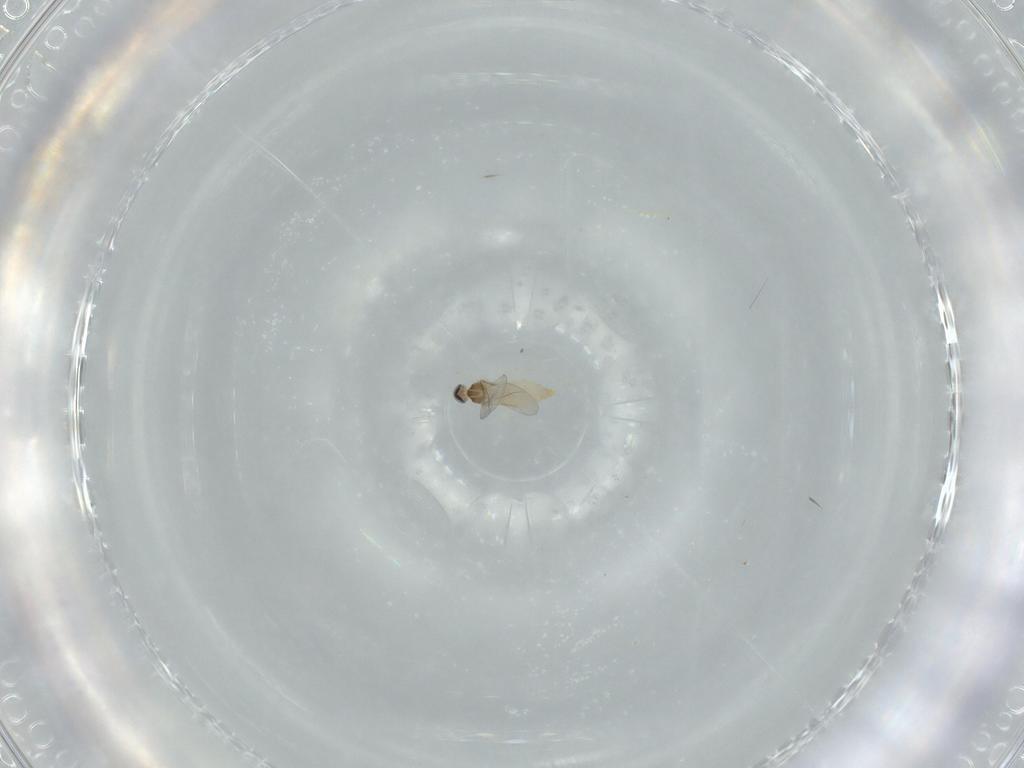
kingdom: Animalia
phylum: Arthropoda
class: Insecta
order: Diptera
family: Cecidomyiidae
